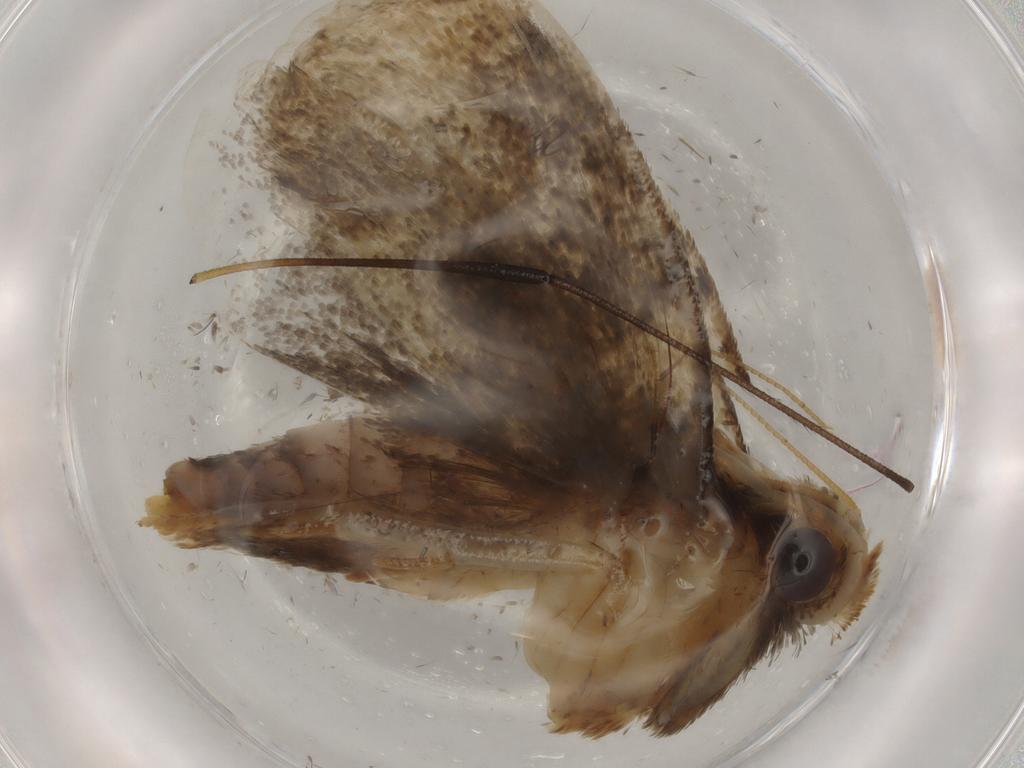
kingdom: Animalia
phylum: Arthropoda
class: Insecta
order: Lepidoptera
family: Tineidae
